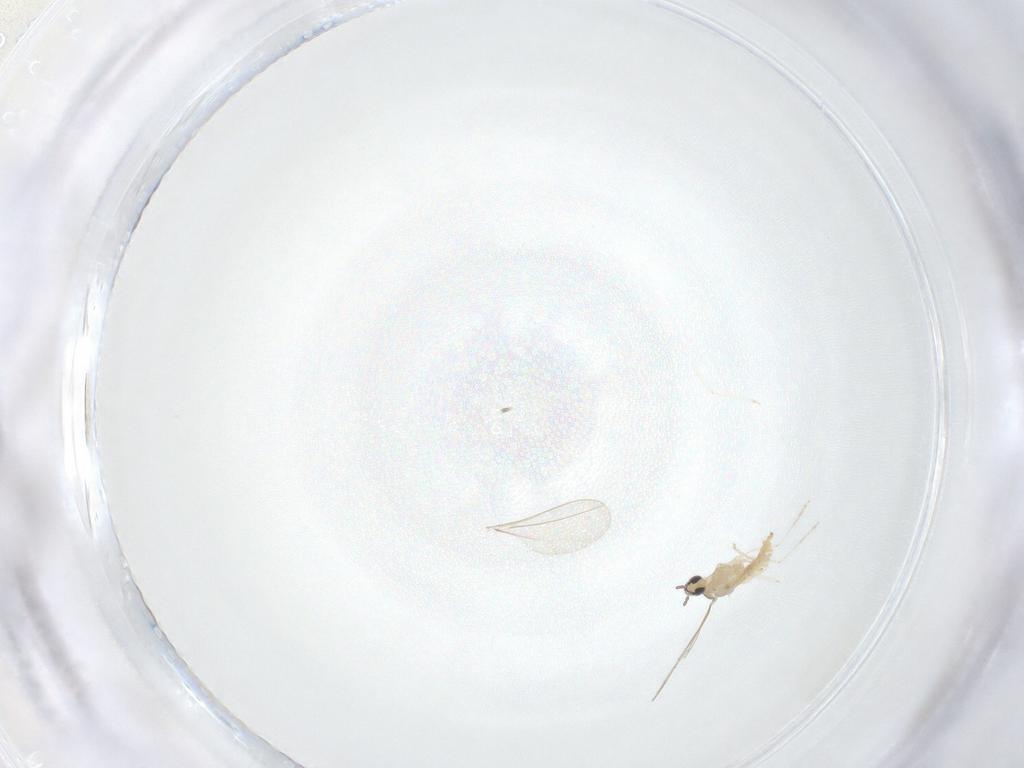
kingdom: Animalia
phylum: Arthropoda
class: Insecta
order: Diptera
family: Cecidomyiidae
